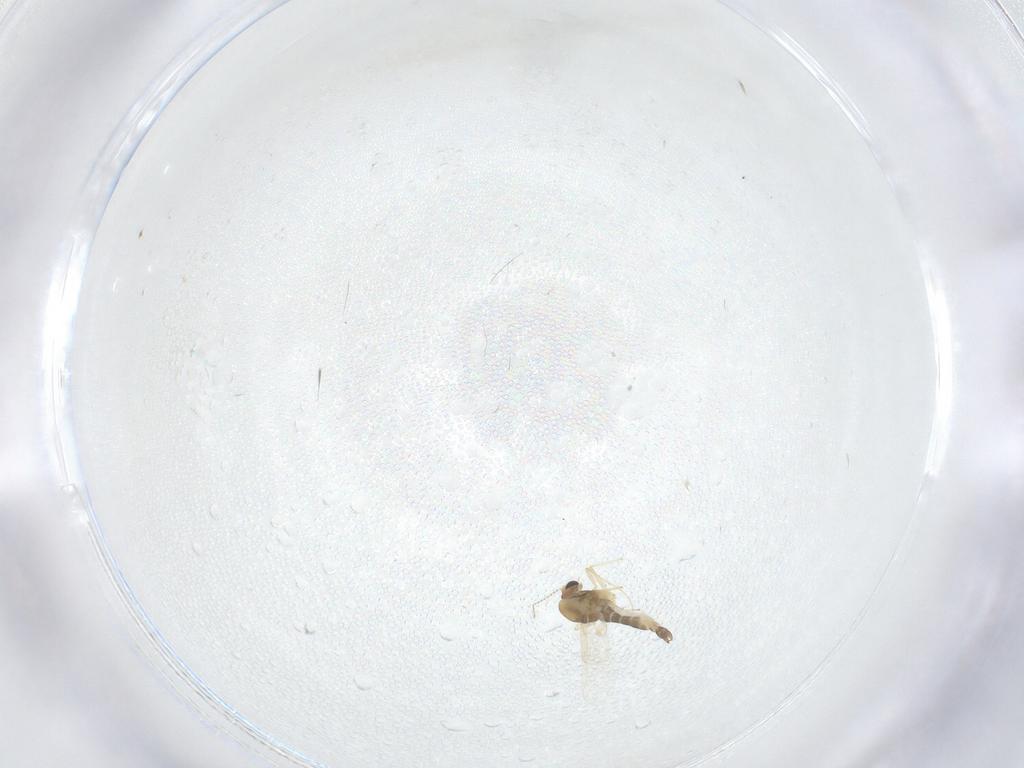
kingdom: Animalia
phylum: Arthropoda
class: Insecta
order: Diptera
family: Chironomidae
